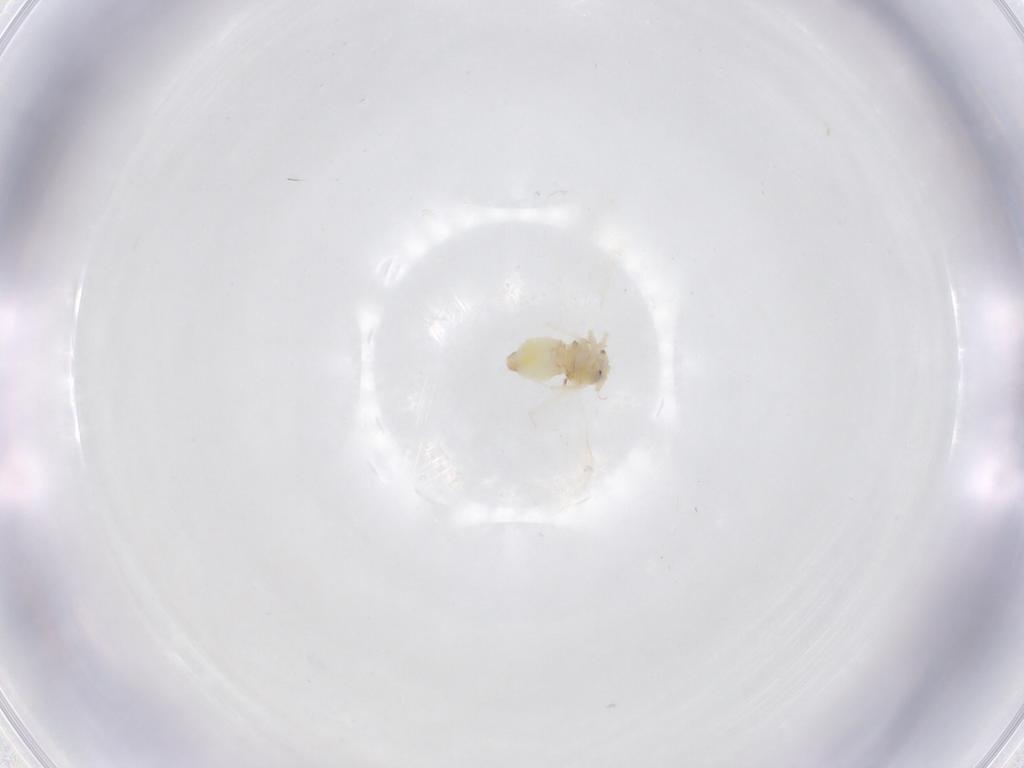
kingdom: Animalia
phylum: Arthropoda
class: Insecta
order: Hemiptera
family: Aleyrodidae
